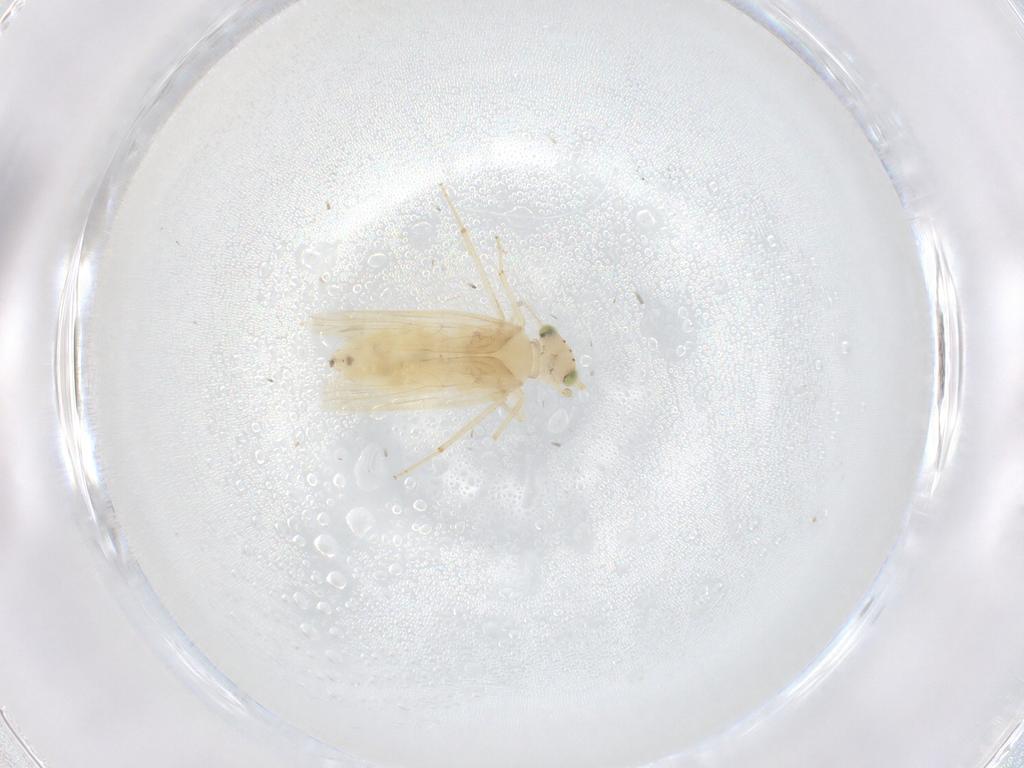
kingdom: Animalia
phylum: Arthropoda
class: Insecta
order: Psocodea
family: Lepidopsocidae
